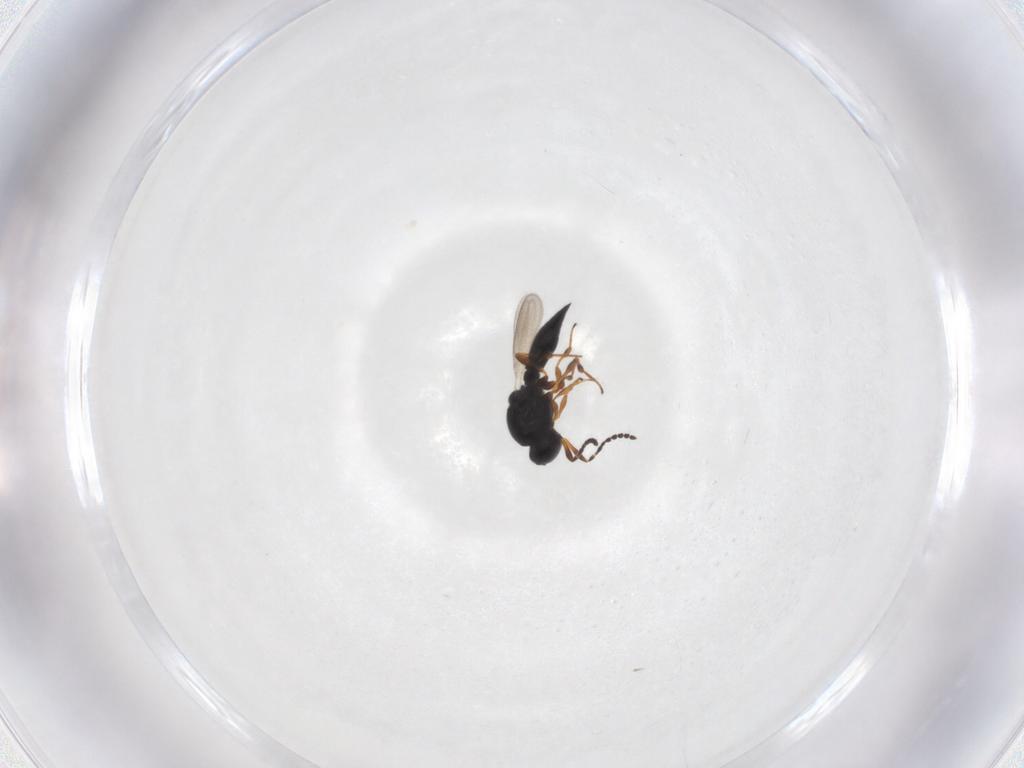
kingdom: Animalia
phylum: Arthropoda
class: Insecta
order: Hymenoptera
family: Platygastridae
